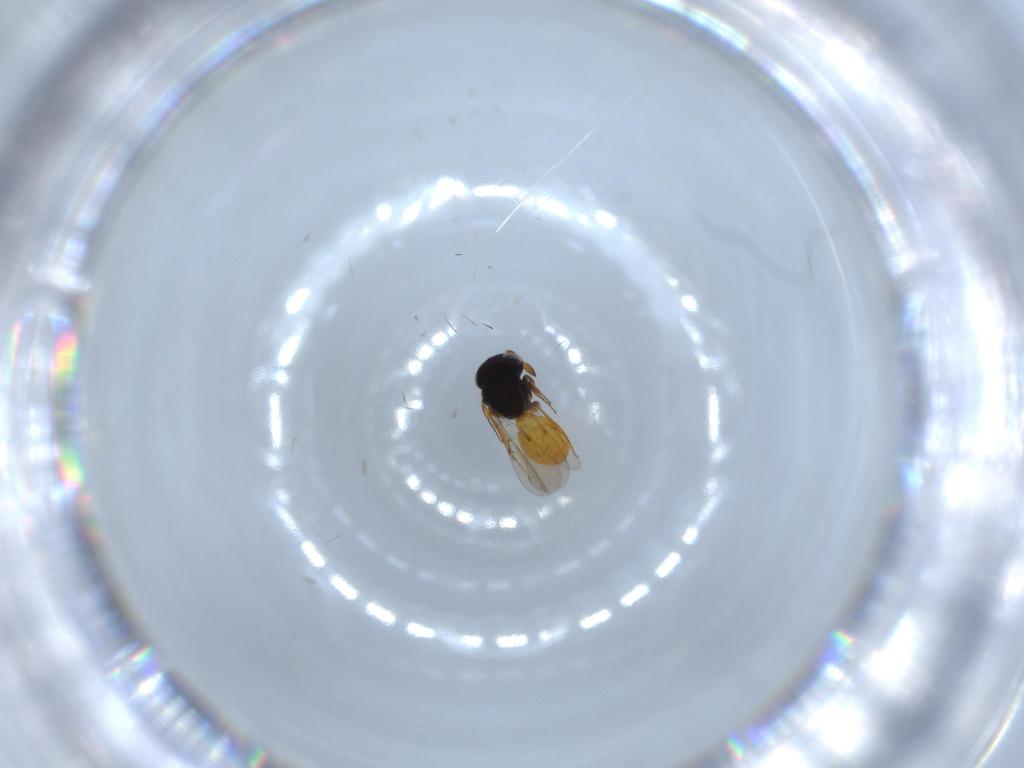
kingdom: Animalia
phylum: Arthropoda
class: Insecta
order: Hymenoptera
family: Scelionidae
